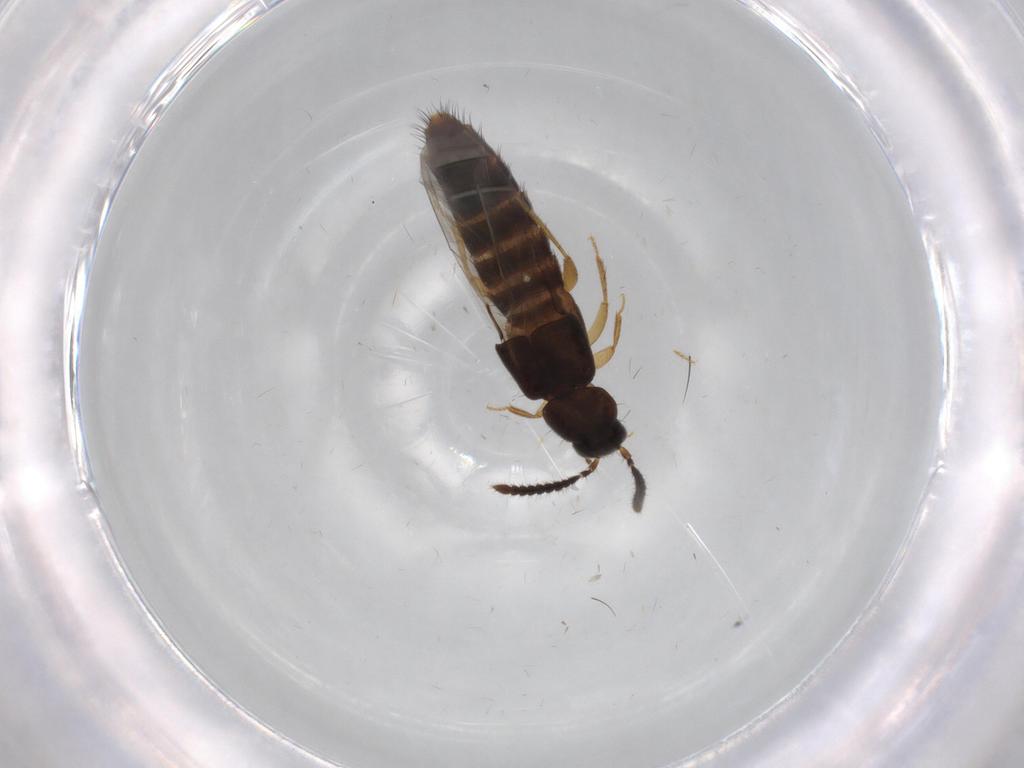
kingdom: Animalia
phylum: Arthropoda
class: Insecta
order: Coleoptera
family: Staphylinidae
